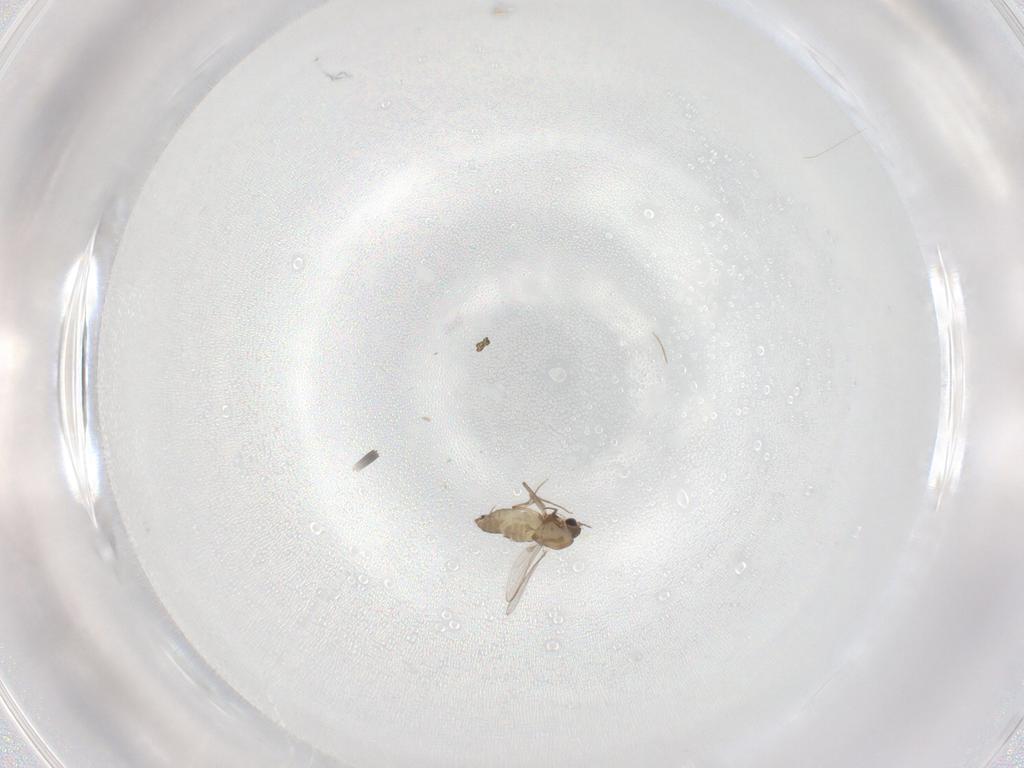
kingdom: Animalia
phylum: Arthropoda
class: Insecta
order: Diptera
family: Chironomidae
